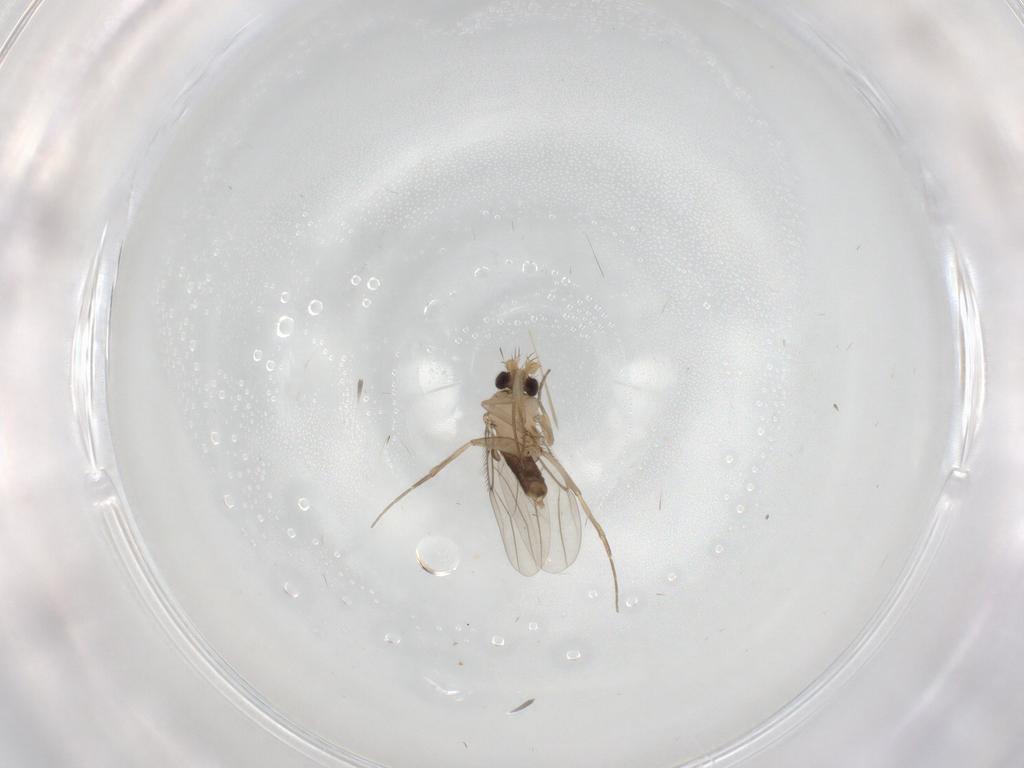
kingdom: Animalia
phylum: Arthropoda
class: Insecta
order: Diptera
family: Phoridae
